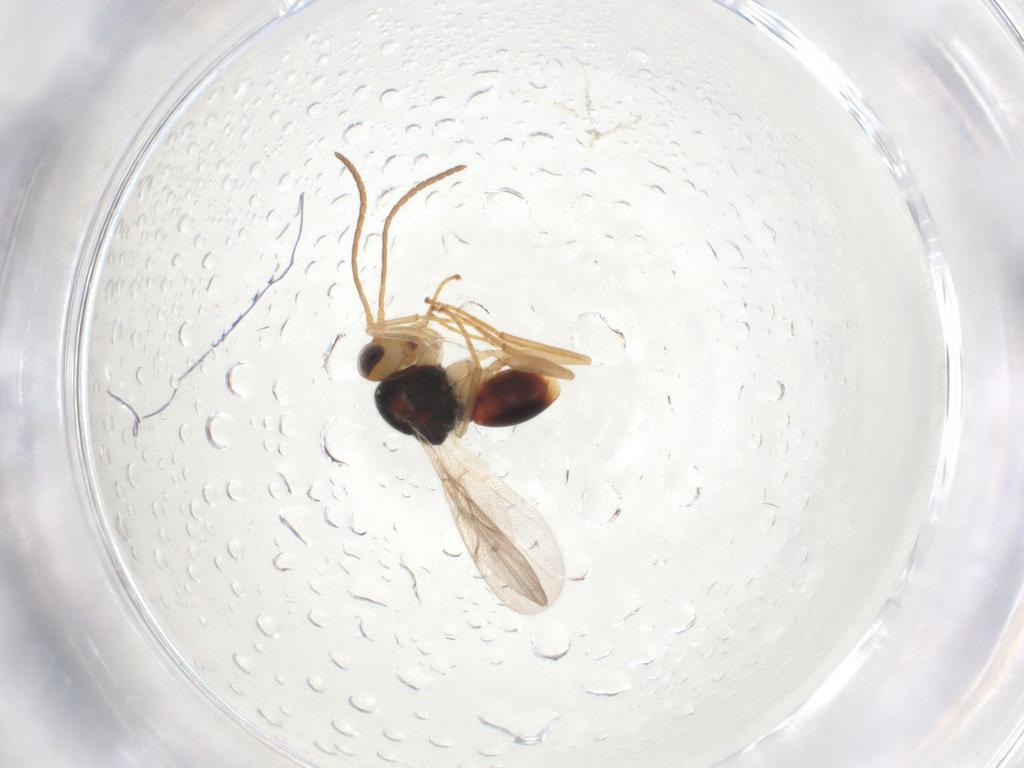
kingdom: Animalia
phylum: Arthropoda
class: Insecta
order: Hymenoptera
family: Cynipidae
